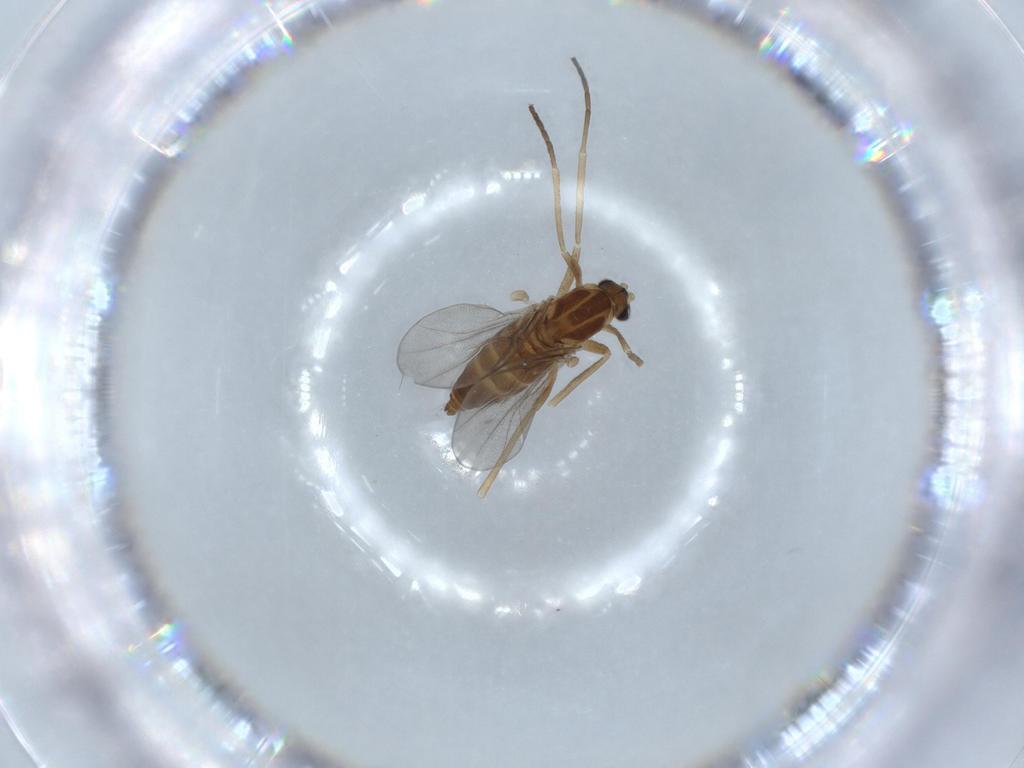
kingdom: Animalia
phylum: Arthropoda
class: Insecta
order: Diptera
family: Cecidomyiidae
